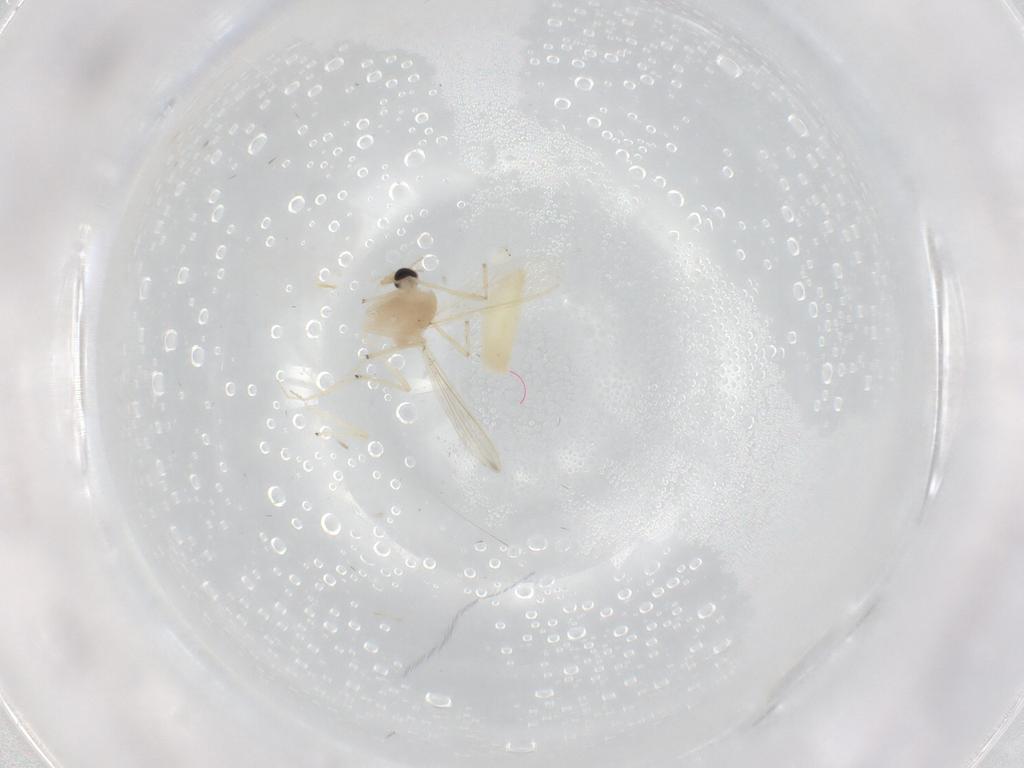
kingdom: Animalia
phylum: Arthropoda
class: Insecta
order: Diptera
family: Chironomidae
